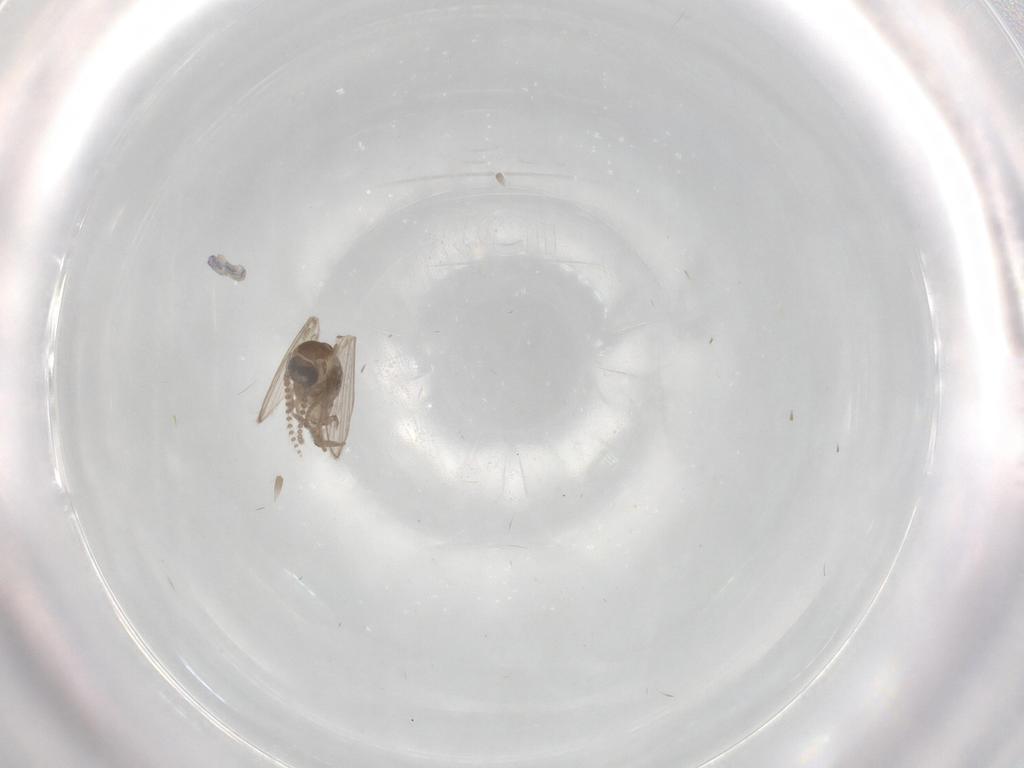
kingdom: Animalia
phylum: Arthropoda
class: Insecta
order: Diptera
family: Psychodidae
